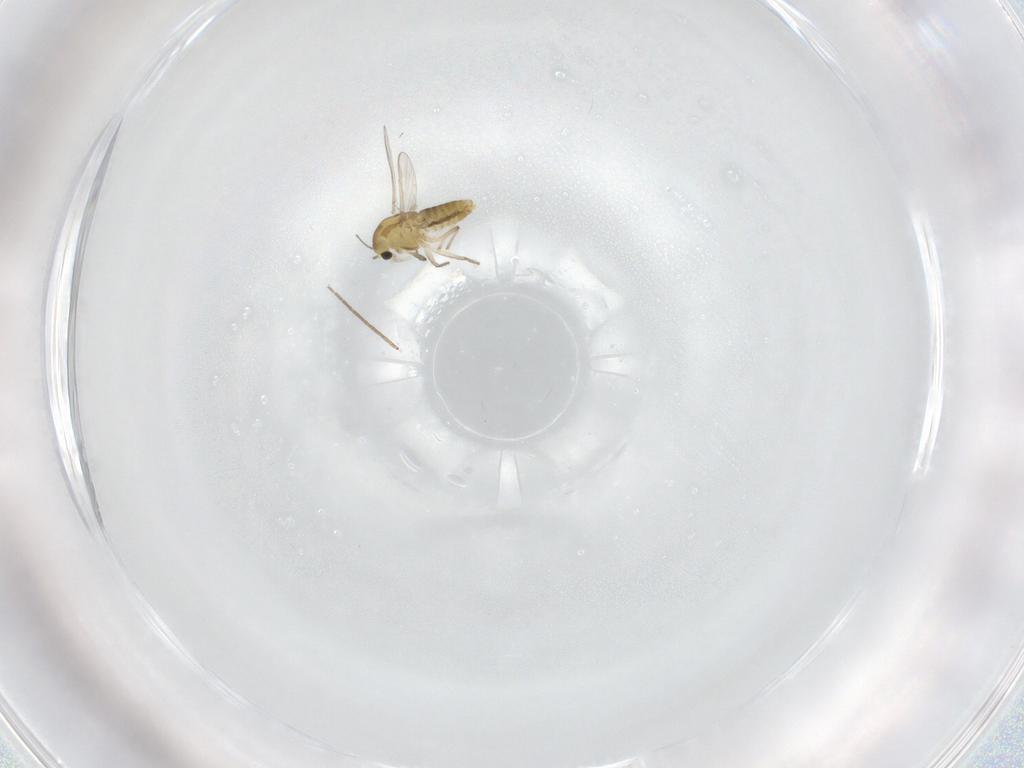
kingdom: Animalia
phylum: Arthropoda
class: Insecta
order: Diptera
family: Chironomidae
